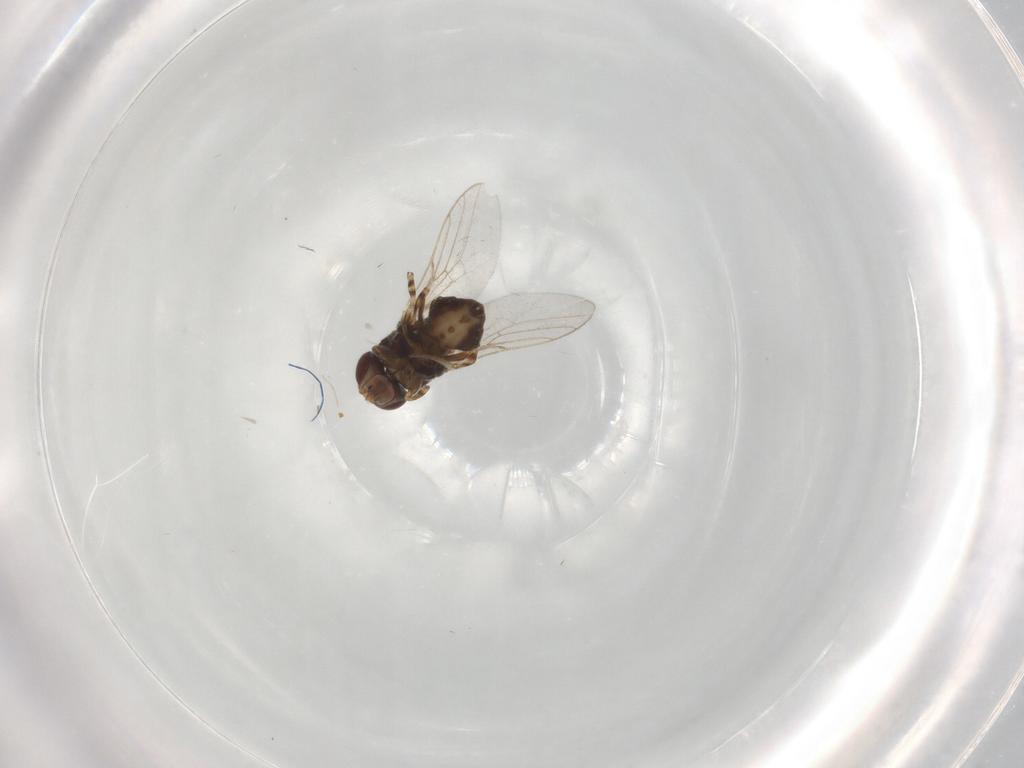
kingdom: Animalia
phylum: Arthropoda
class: Insecta
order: Diptera
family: Chloropidae
